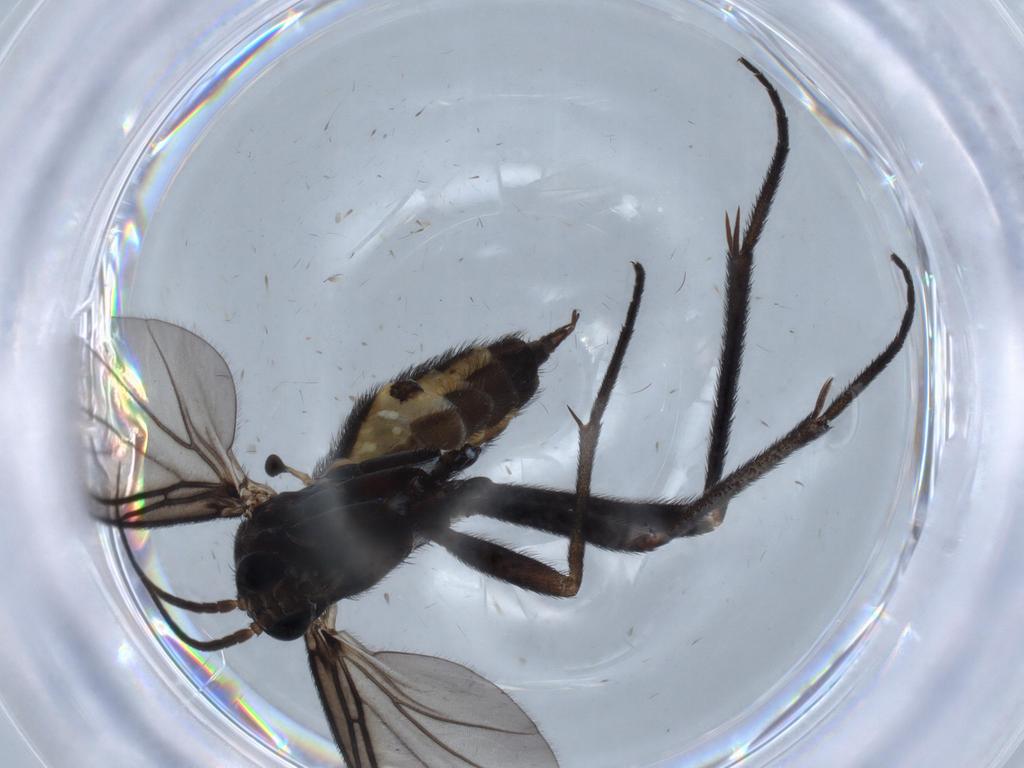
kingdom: Animalia
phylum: Arthropoda
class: Insecta
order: Diptera
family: Sciaridae
